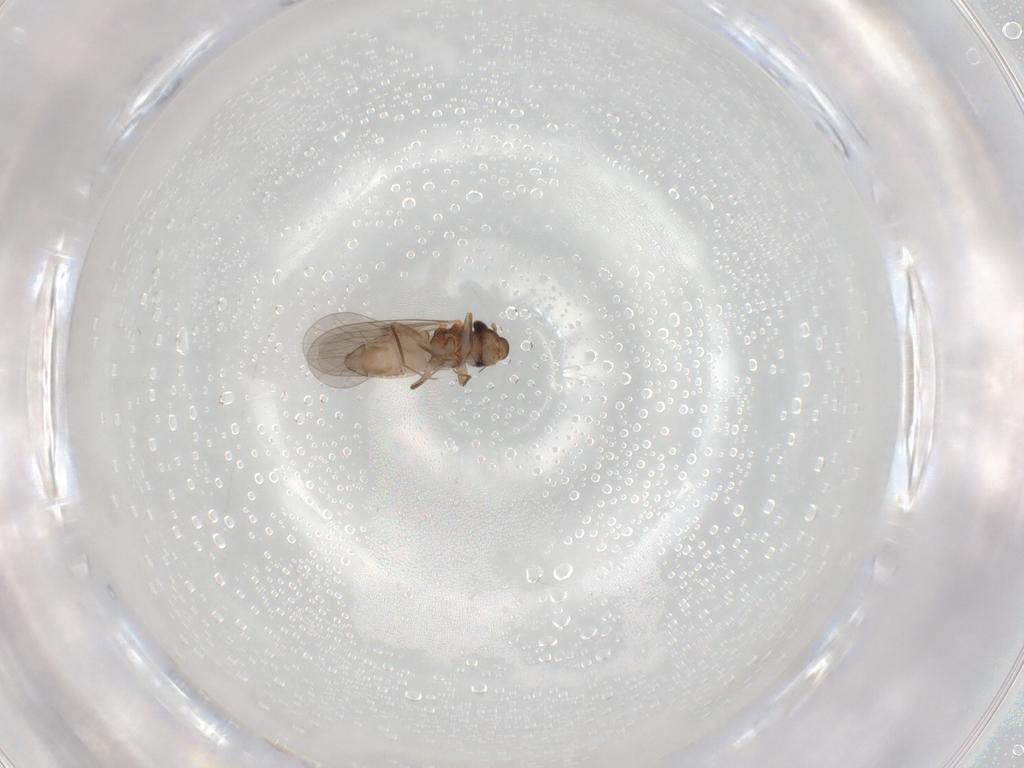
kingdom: Animalia
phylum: Arthropoda
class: Insecta
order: Psocodea
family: Lepidopsocidae
